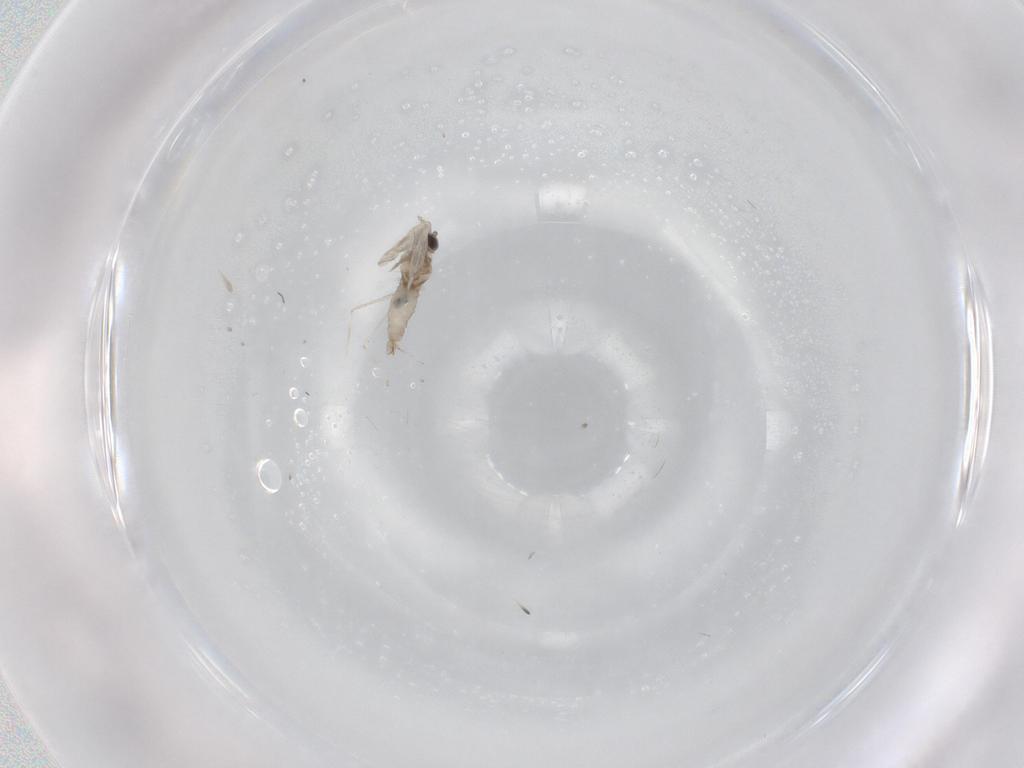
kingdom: Animalia
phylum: Arthropoda
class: Insecta
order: Diptera
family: Cecidomyiidae
